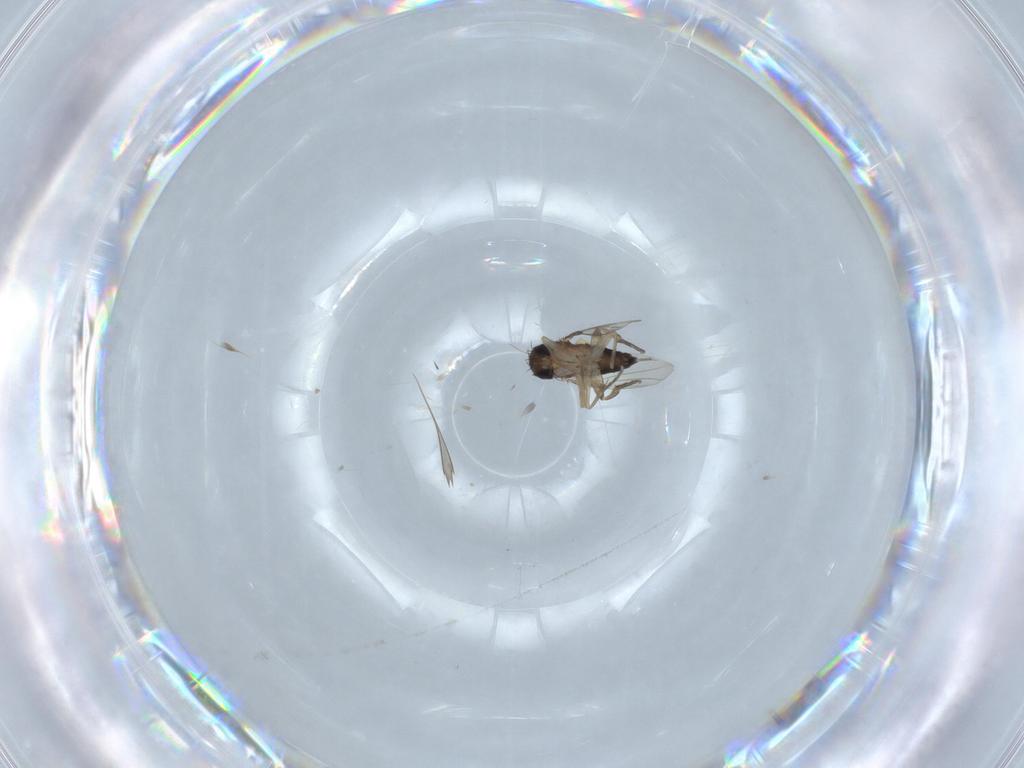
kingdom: Animalia
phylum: Arthropoda
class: Insecta
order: Diptera
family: Phoridae
